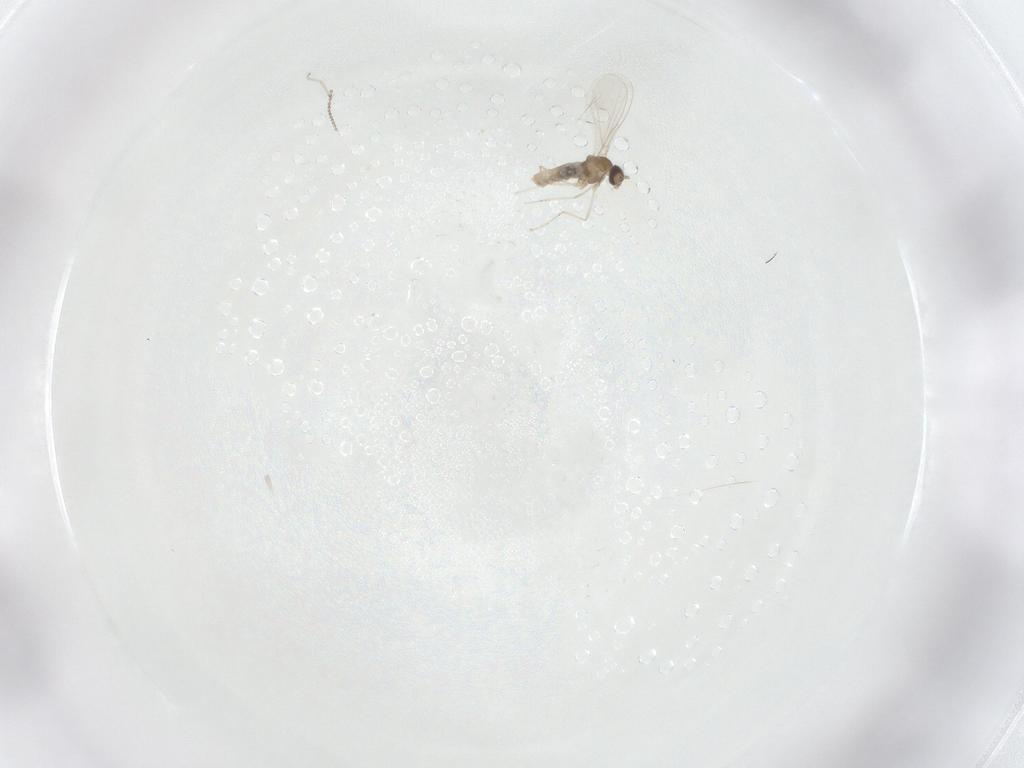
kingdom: Animalia
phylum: Arthropoda
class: Insecta
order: Diptera
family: Cecidomyiidae
